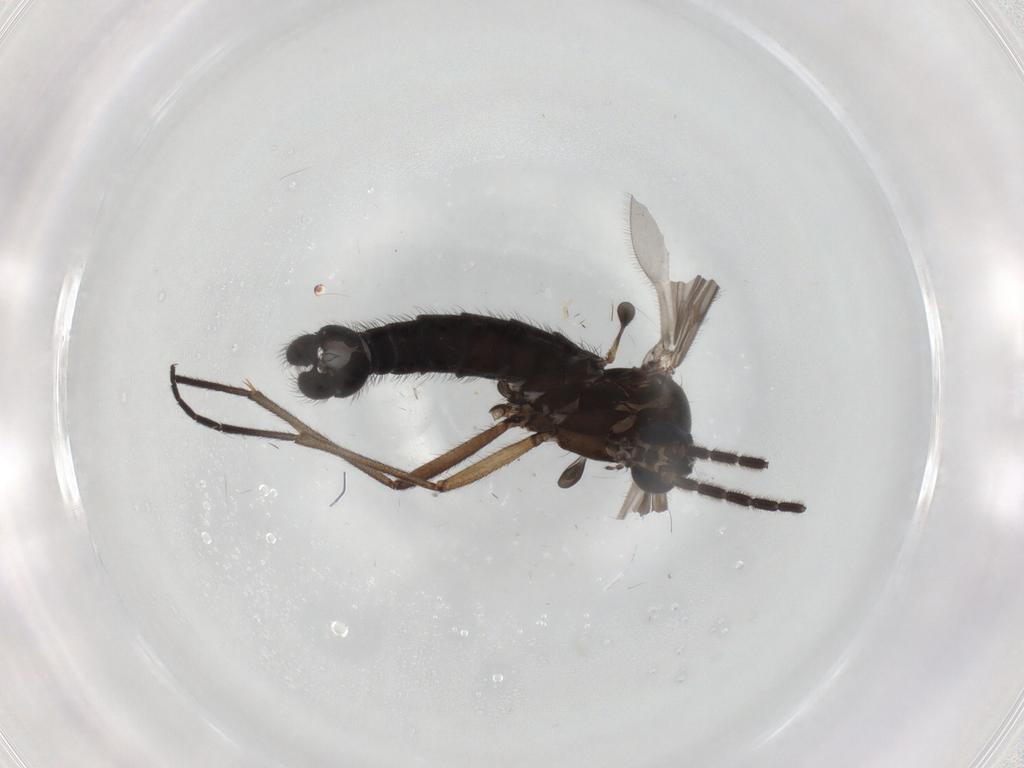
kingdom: Animalia
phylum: Arthropoda
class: Insecta
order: Diptera
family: Sciaridae
